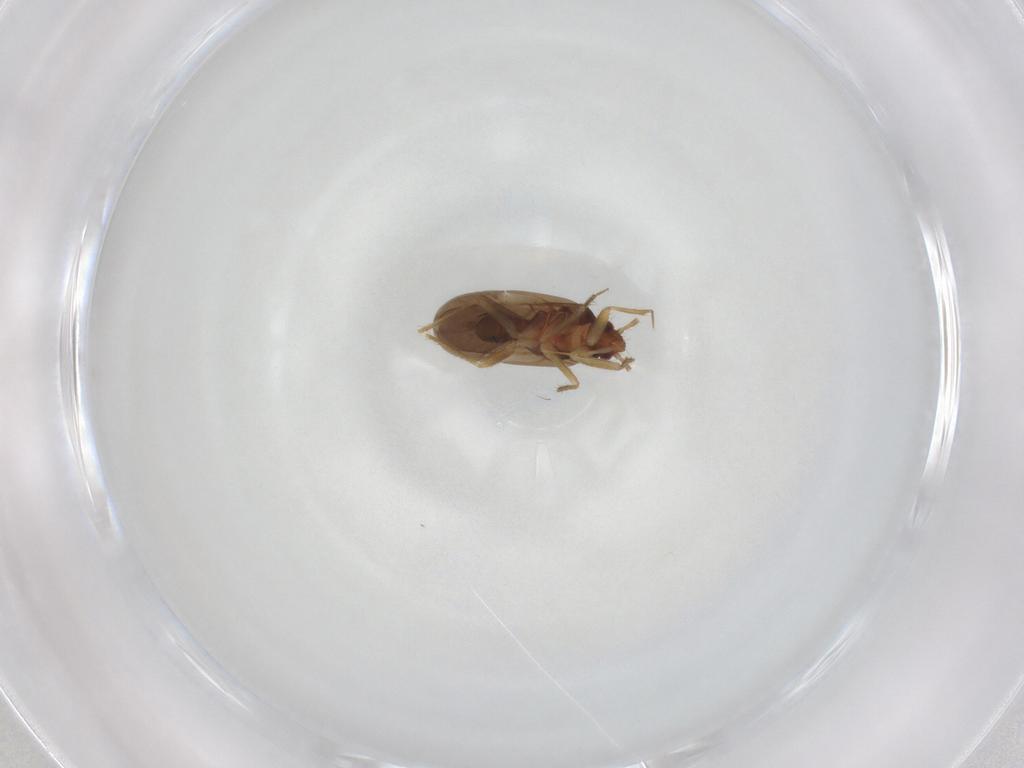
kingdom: Animalia
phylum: Arthropoda
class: Insecta
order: Hemiptera
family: Ceratocombidae
